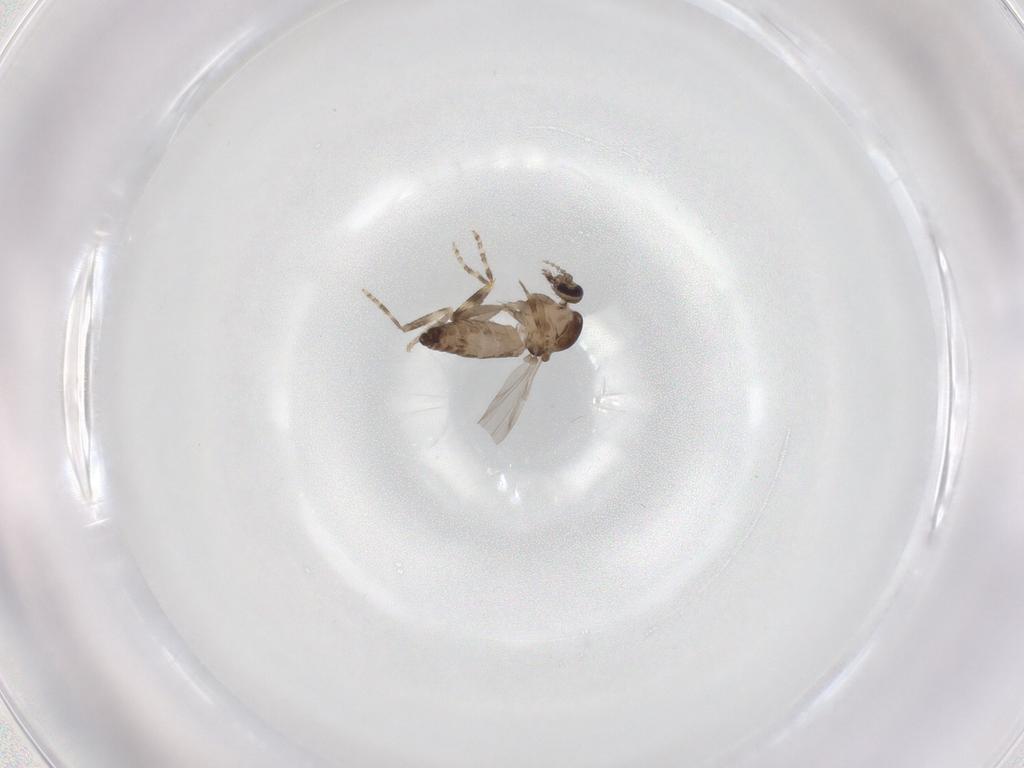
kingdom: Animalia
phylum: Arthropoda
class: Insecta
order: Diptera
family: Ceratopogonidae
